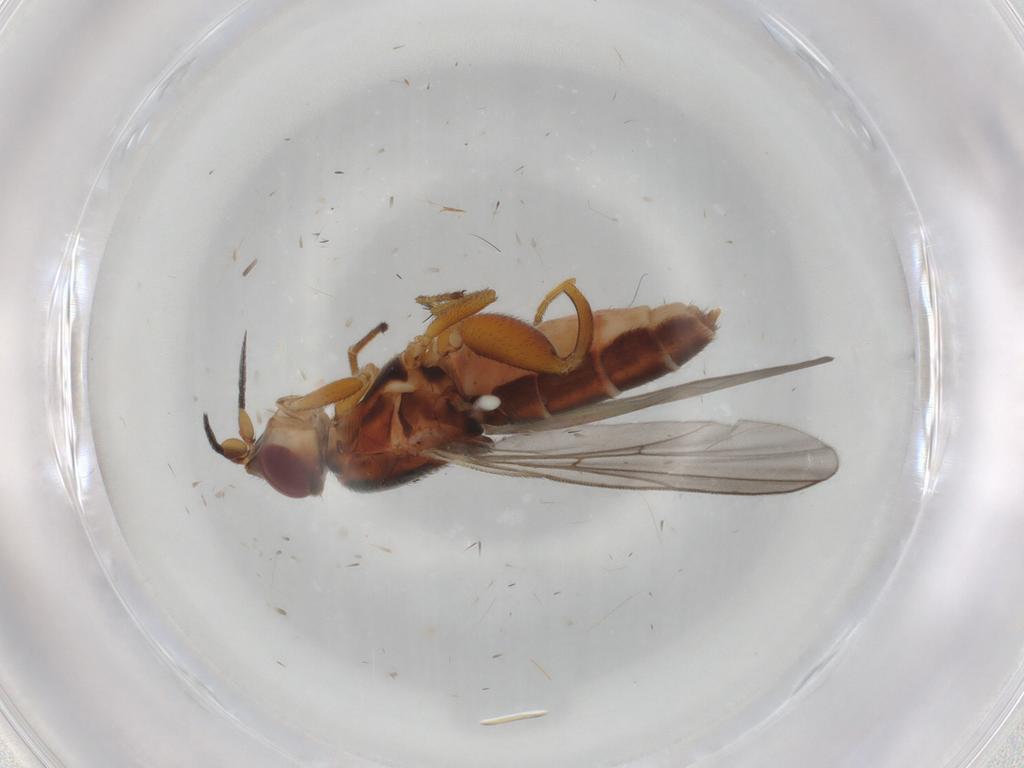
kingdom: Animalia
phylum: Arthropoda
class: Insecta
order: Diptera
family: Chloropidae
